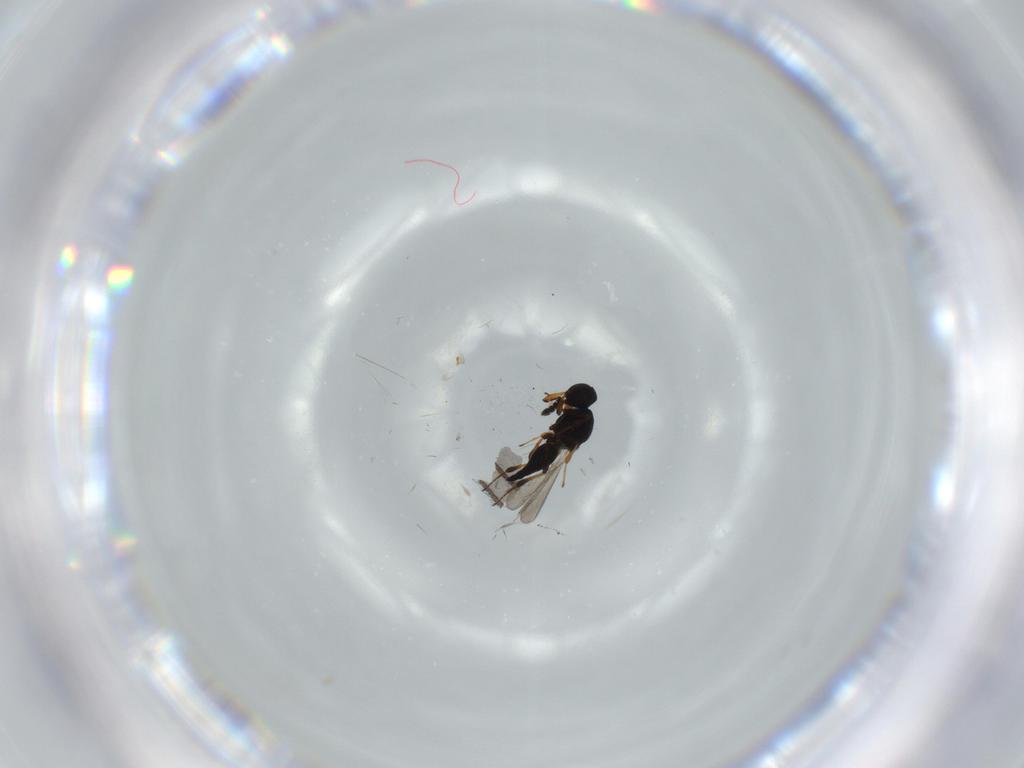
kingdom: Animalia
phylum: Arthropoda
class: Insecta
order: Hymenoptera
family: Platygastridae
